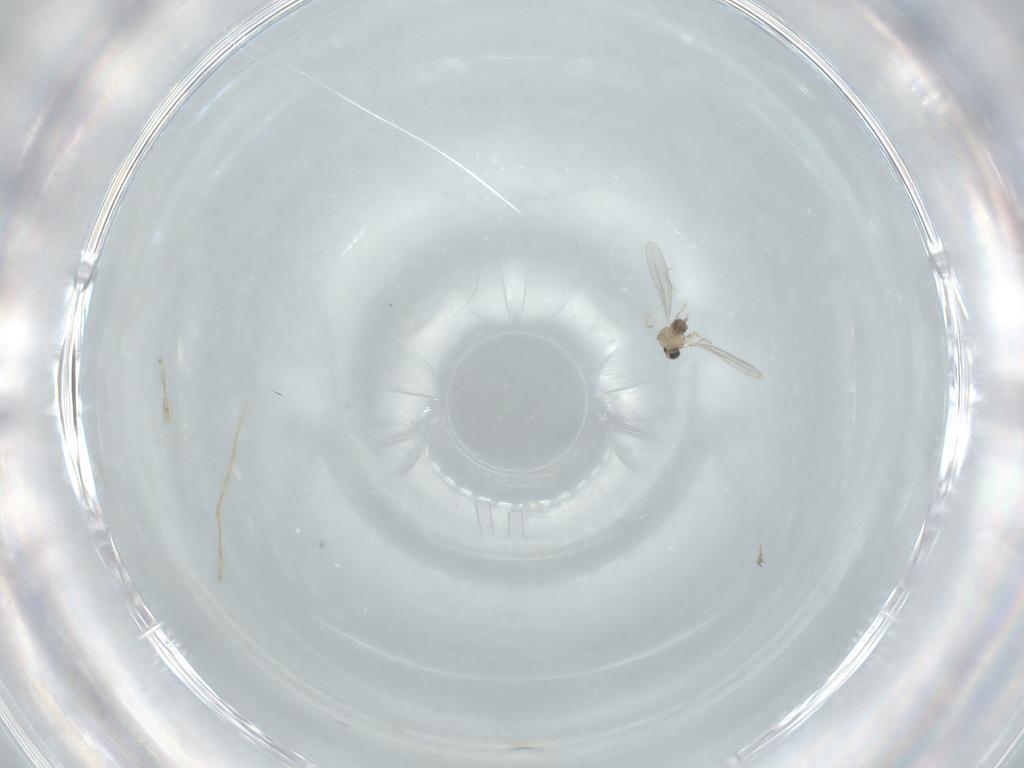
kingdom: Animalia
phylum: Arthropoda
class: Insecta
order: Diptera
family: Cecidomyiidae
